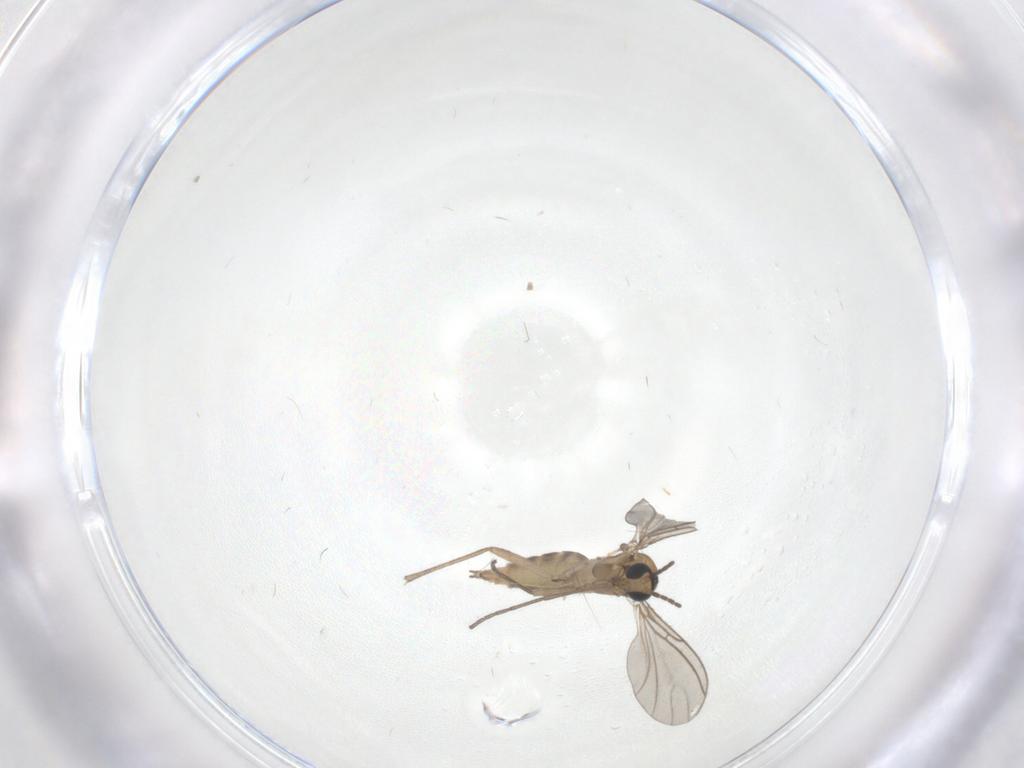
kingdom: Animalia
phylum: Arthropoda
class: Insecta
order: Diptera
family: Sciaridae
